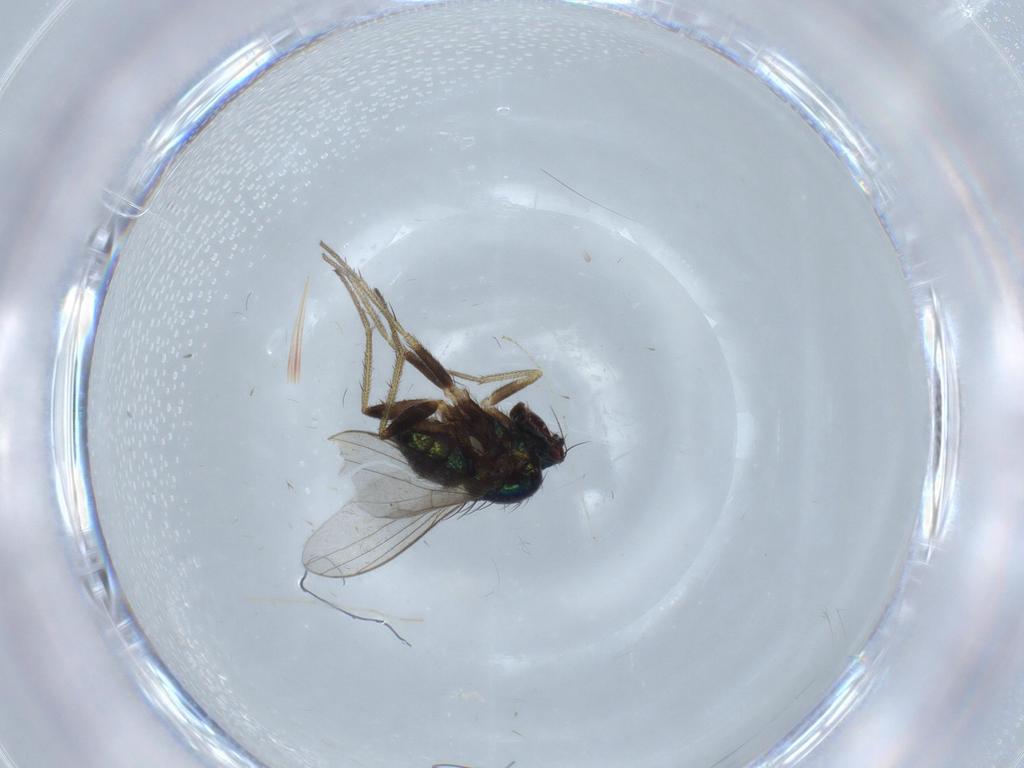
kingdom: Animalia
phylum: Arthropoda
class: Insecta
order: Diptera
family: Chironomidae
